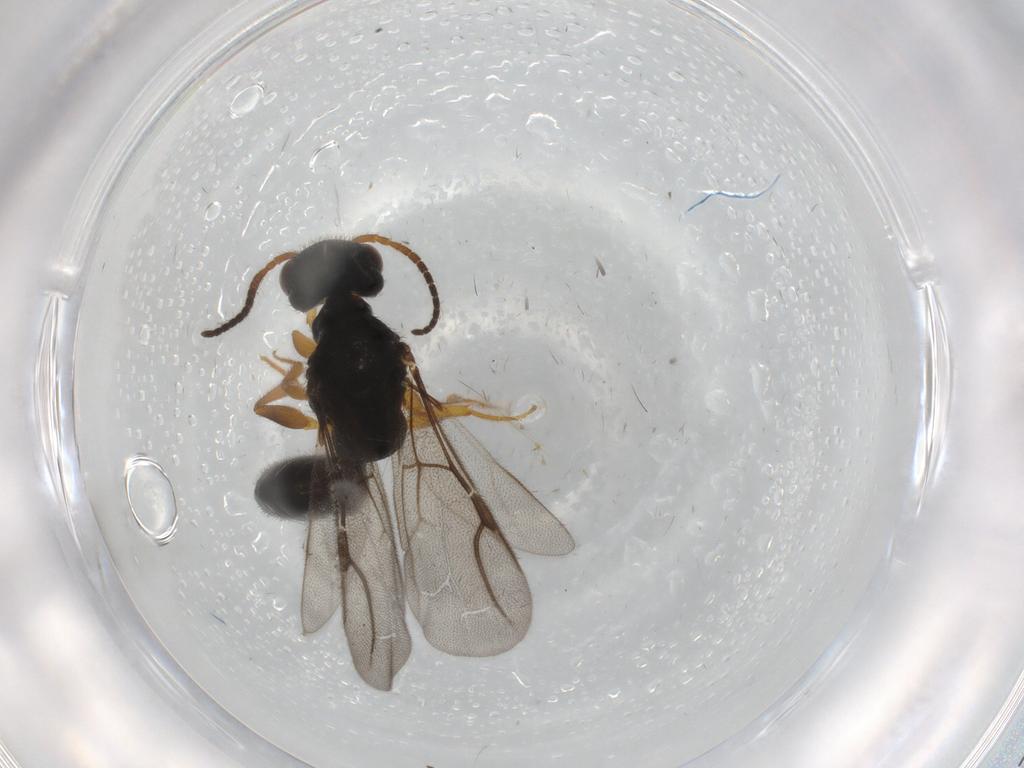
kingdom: Animalia
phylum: Arthropoda
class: Insecta
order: Hymenoptera
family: Bethylidae
